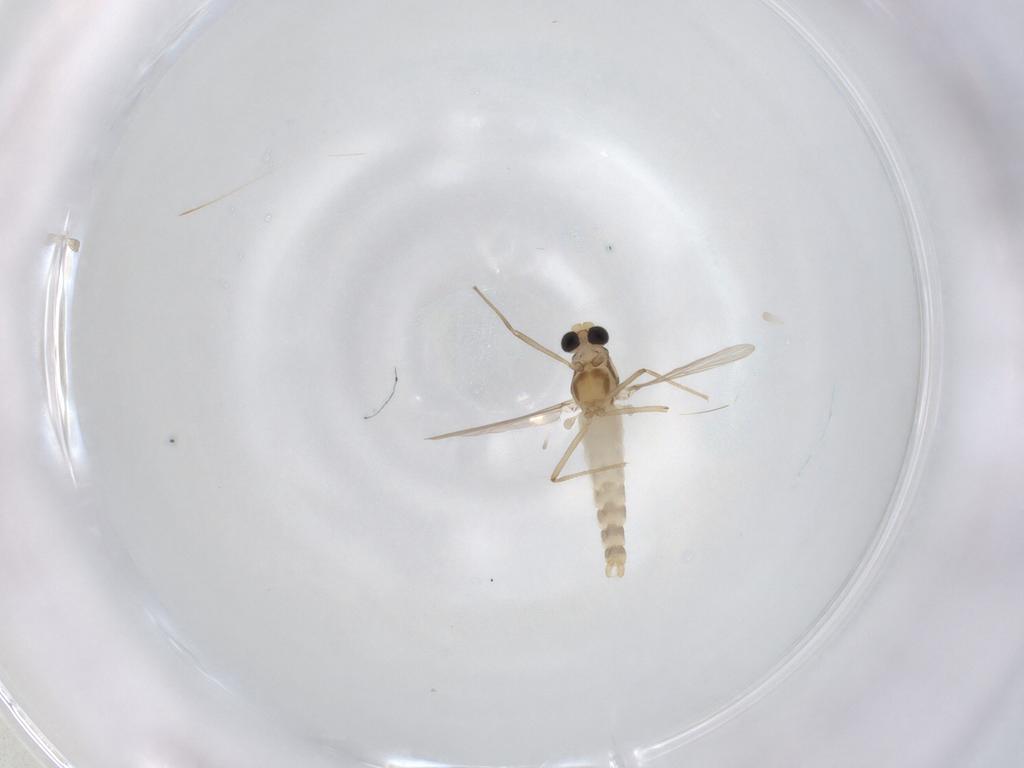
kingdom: Animalia
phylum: Arthropoda
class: Insecta
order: Diptera
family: Chironomidae
